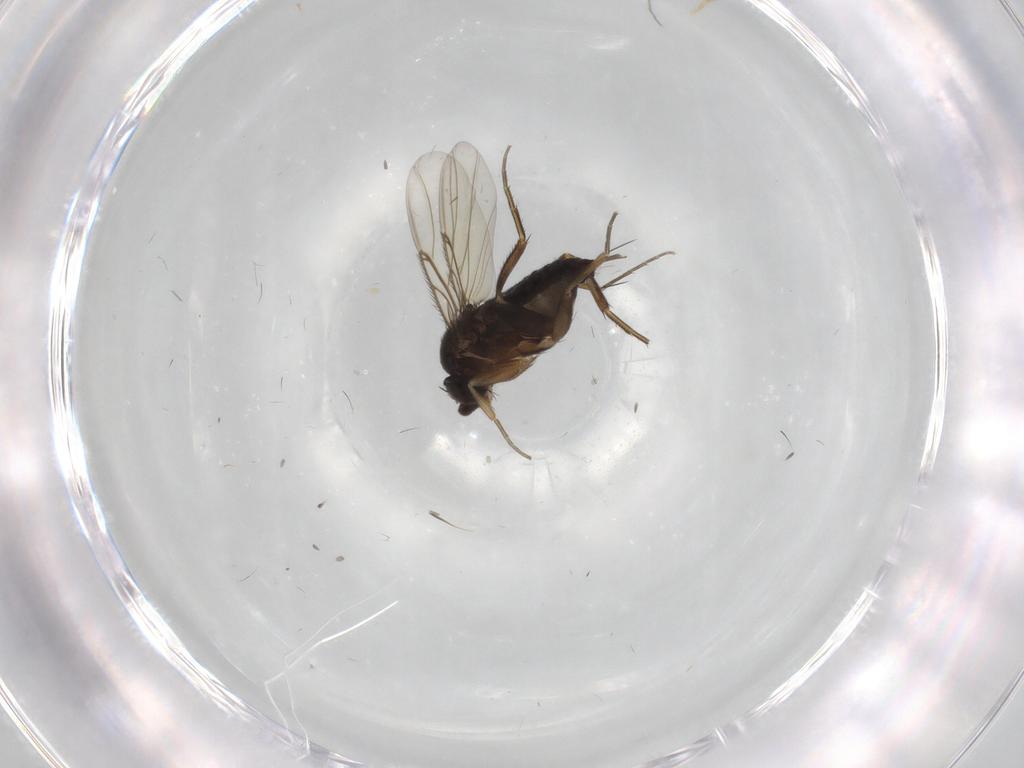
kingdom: Animalia
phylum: Arthropoda
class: Insecta
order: Diptera
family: Phoridae
